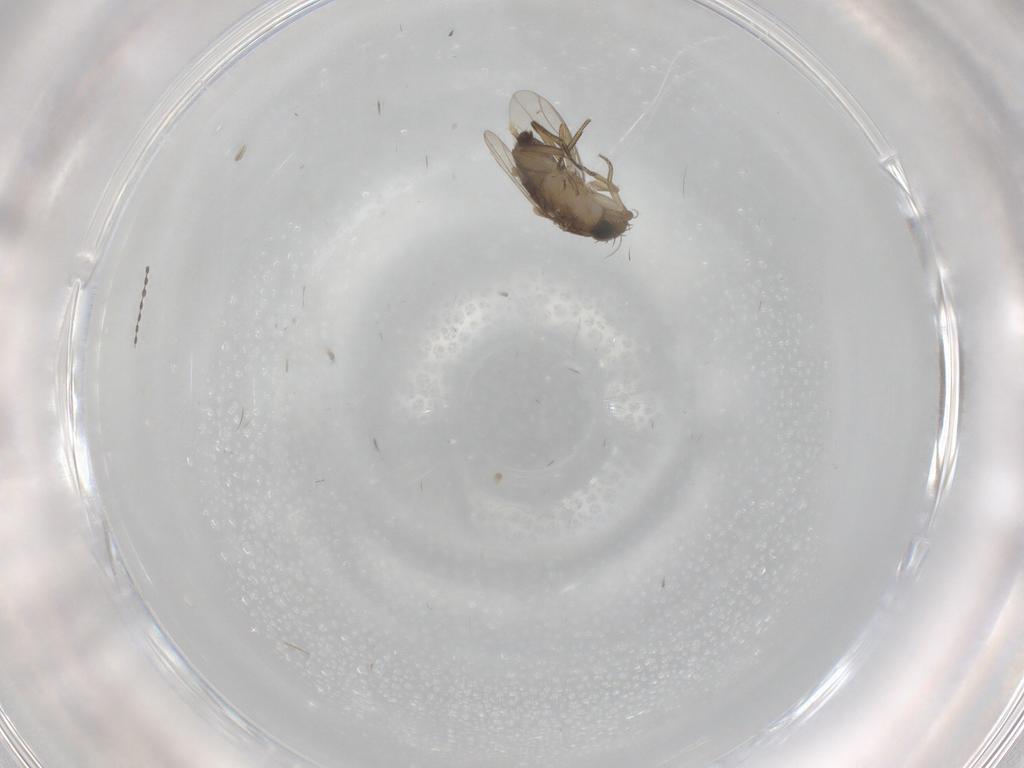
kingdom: Animalia
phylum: Arthropoda
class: Insecta
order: Diptera
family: Phoridae
